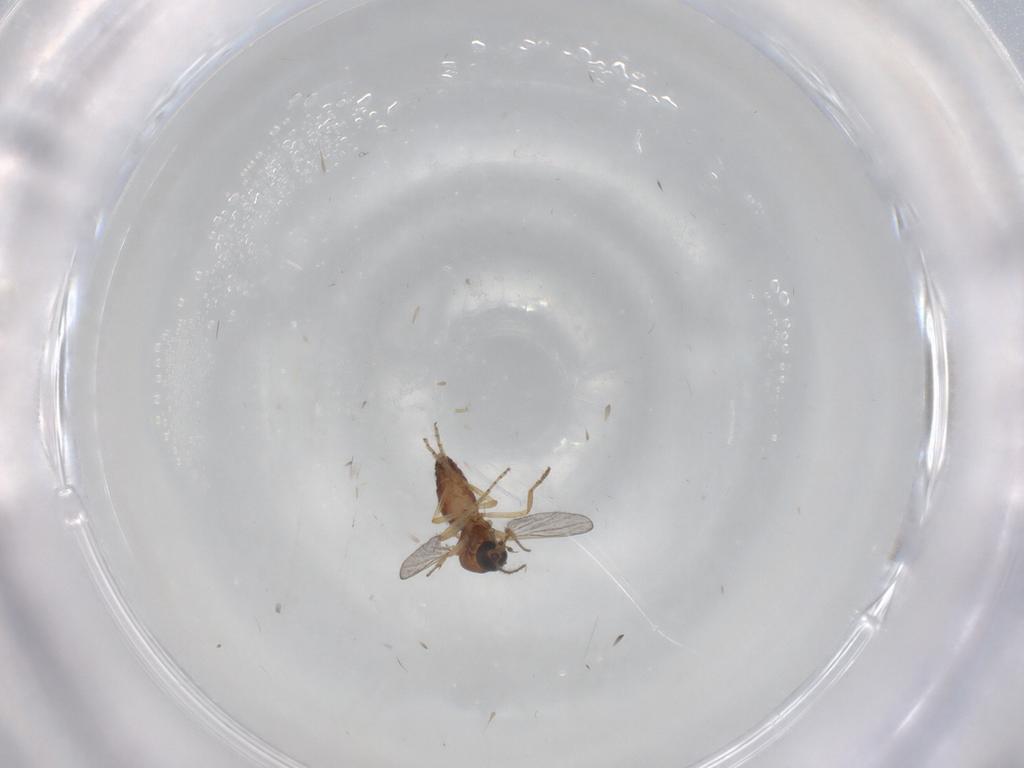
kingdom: Animalia
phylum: Arthropoda
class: Insecta
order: Diptera
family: Ceratopogonidae
